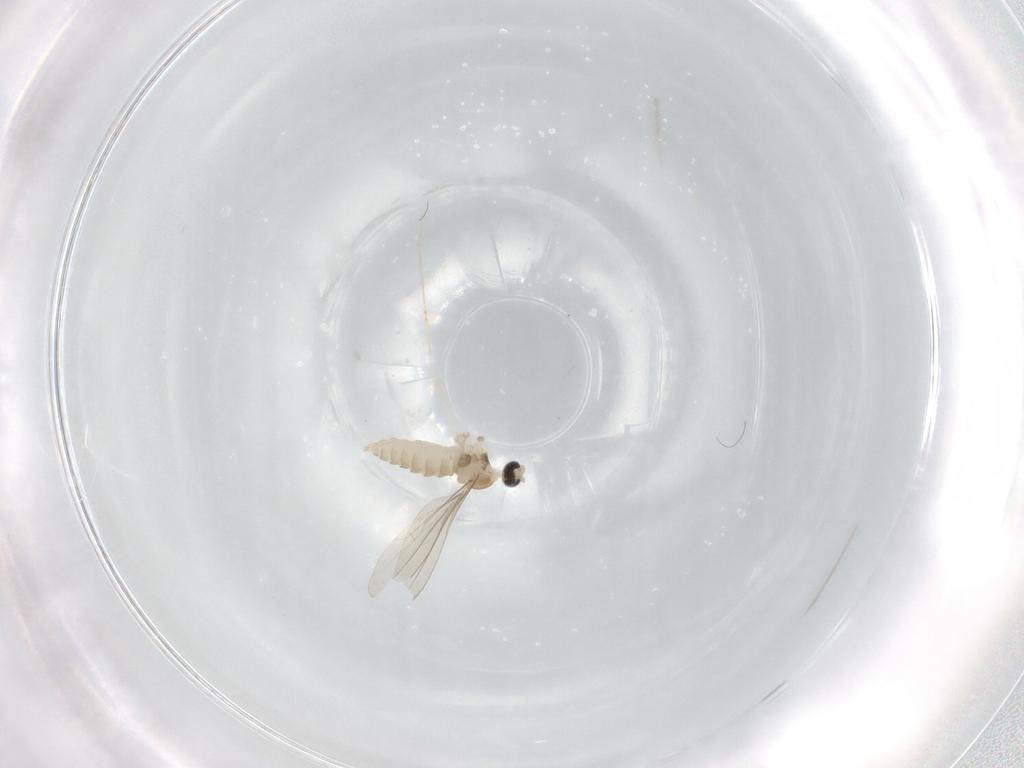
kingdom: Animalia
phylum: Arthropoda
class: Insecta
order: Diptera
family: Cecidomyiidae
